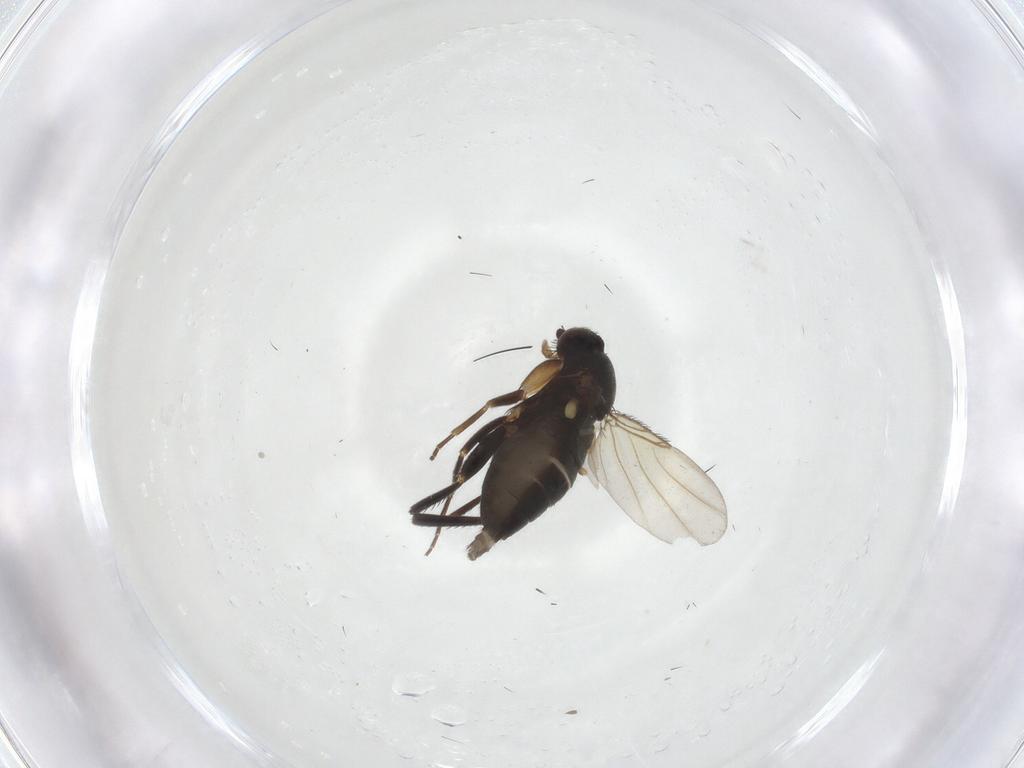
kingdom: Animalia
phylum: Arthropoda
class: Insecta
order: Diptera
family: Phoridae
